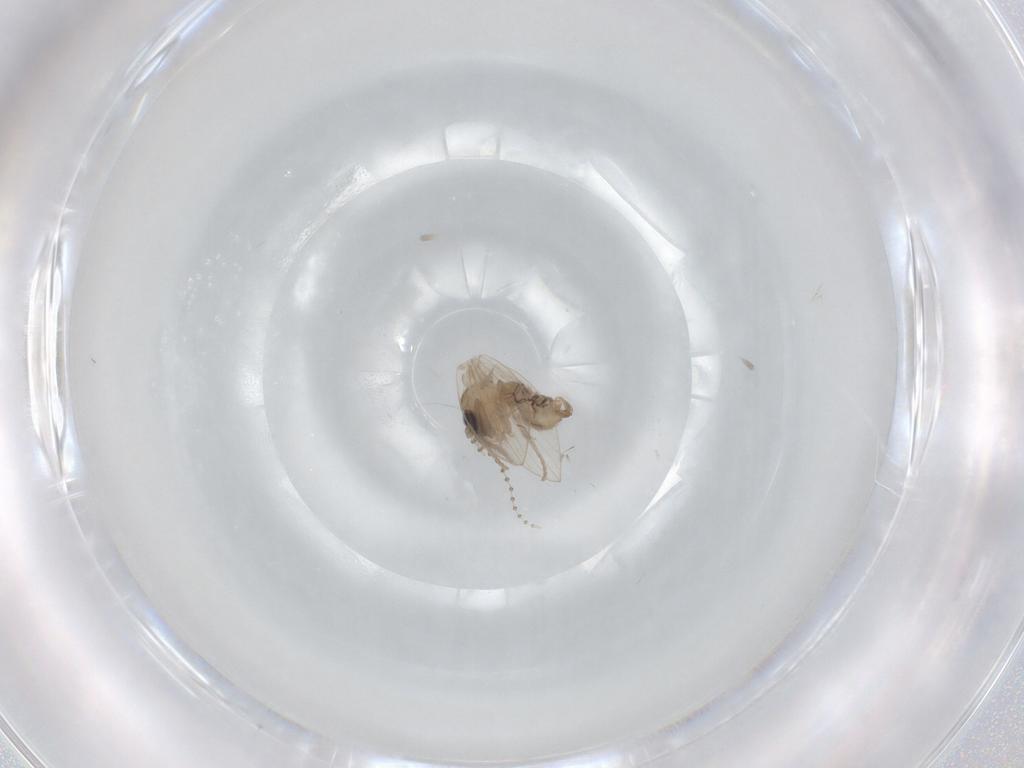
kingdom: Animalia
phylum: Arthropoda
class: Insecta
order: Diptera
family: Psychodidae
